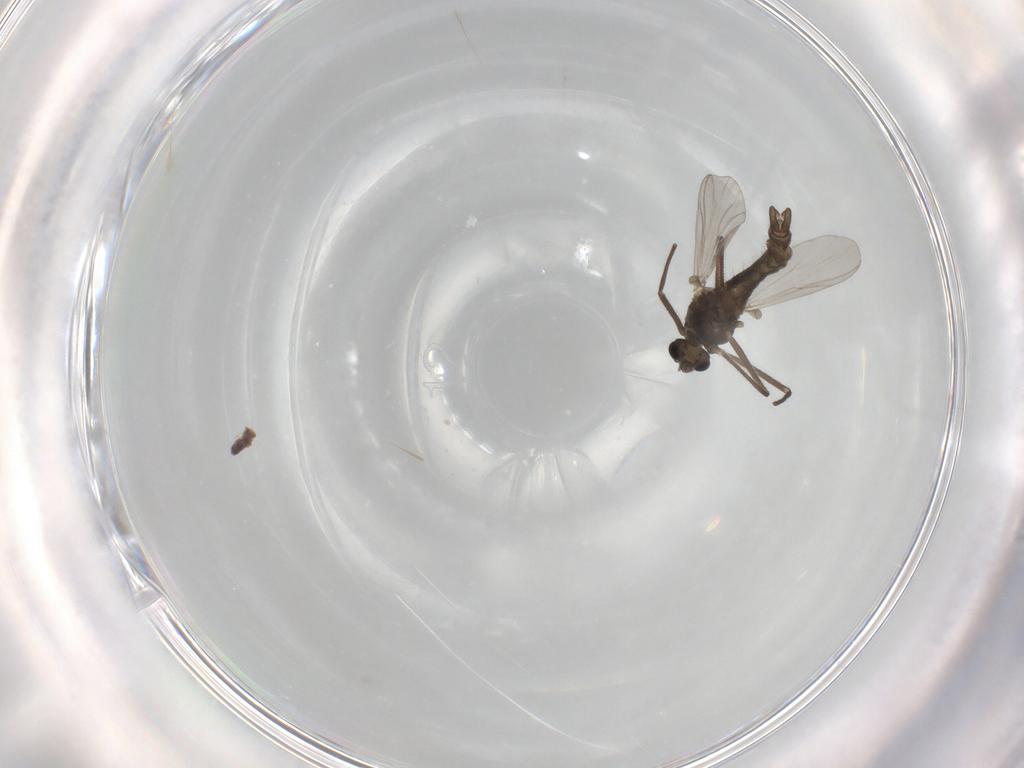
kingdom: Animalia
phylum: Arthropoda
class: Insecta
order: Diptera
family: Chironomidae
